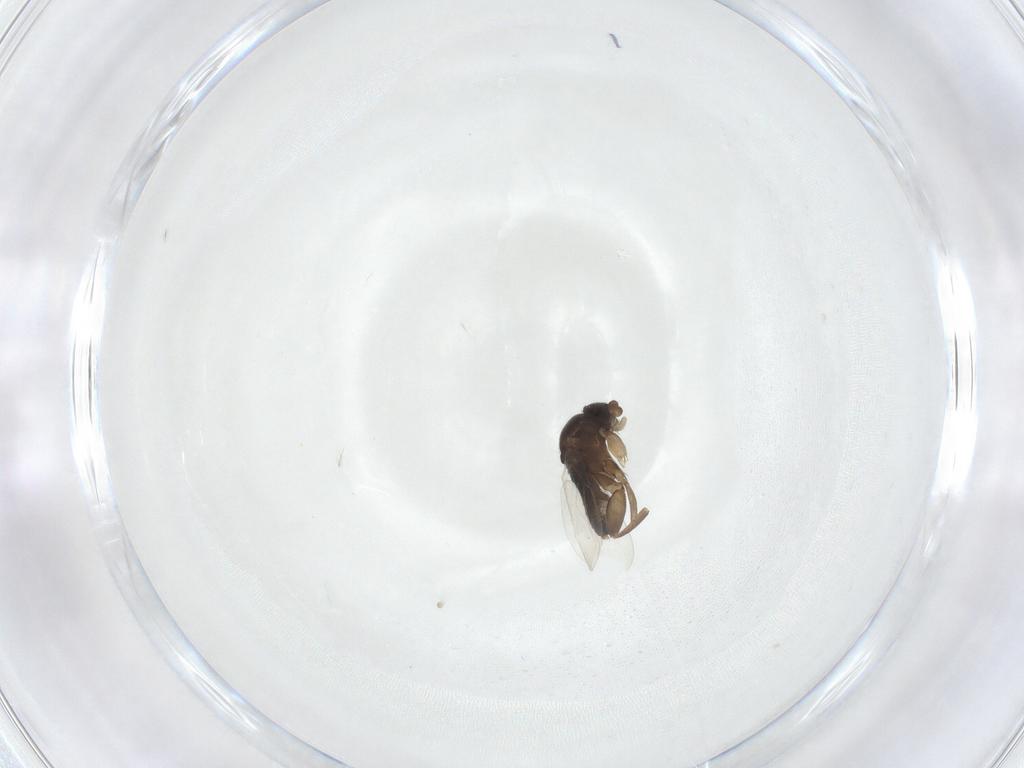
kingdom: Animalia
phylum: Arthropoda
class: Insecta
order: Diptera
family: Phoridae
